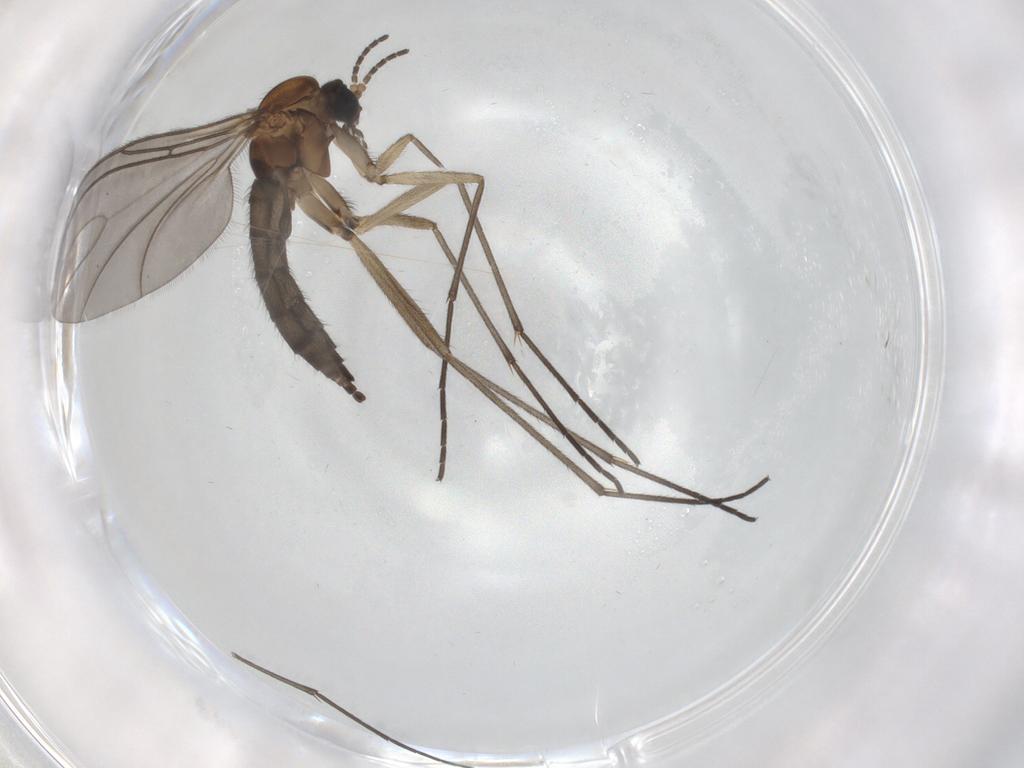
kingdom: Animalia
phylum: Arthropoda
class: Insecta
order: Diptera
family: Sciaridae
